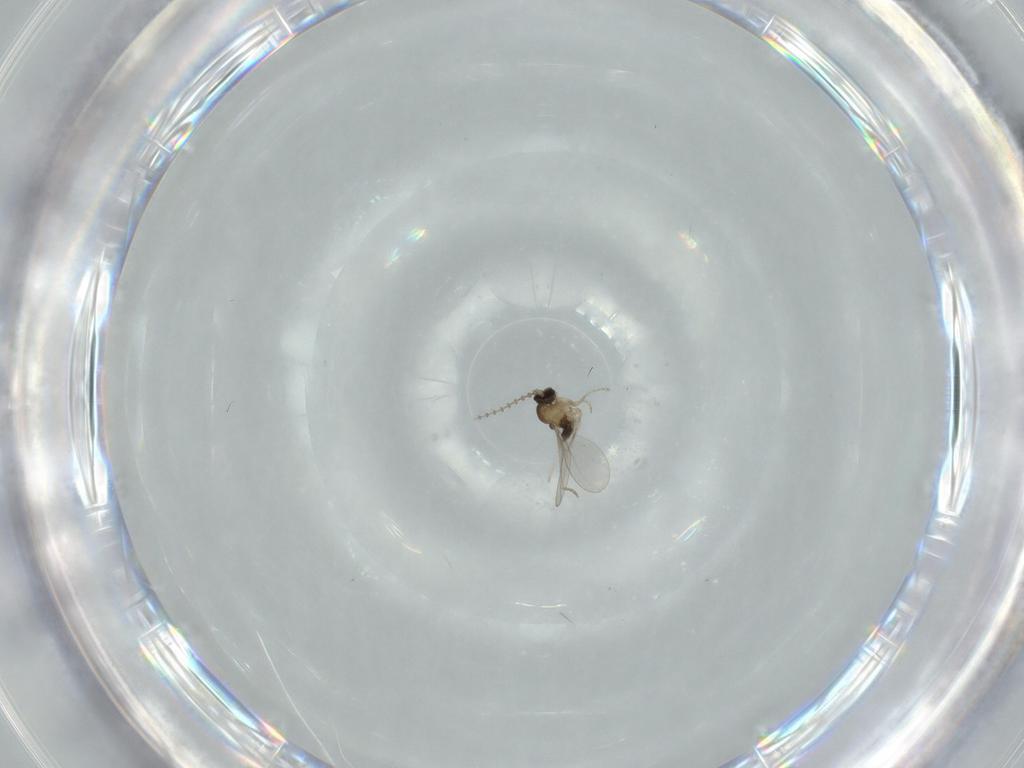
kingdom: Animalia
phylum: Arthropoda
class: Insecta
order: Diptera
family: Cecidomyiidae
